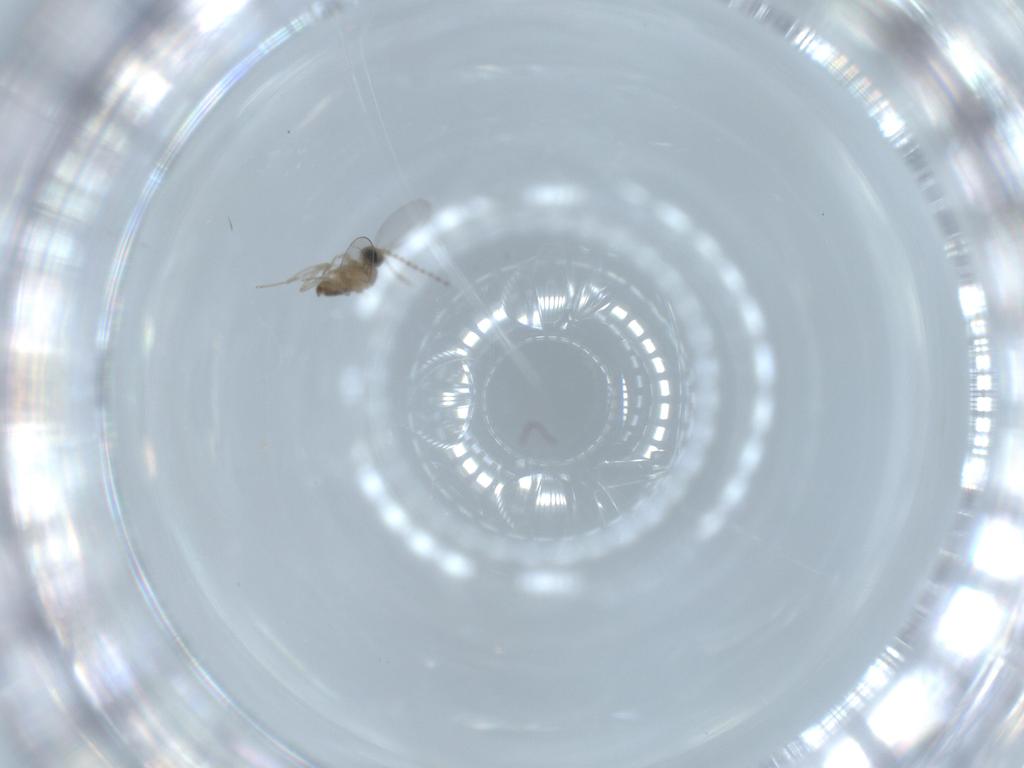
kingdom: Animalia
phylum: Arthropoda
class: Insecta
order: Diptera
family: Cecidomyiidae
